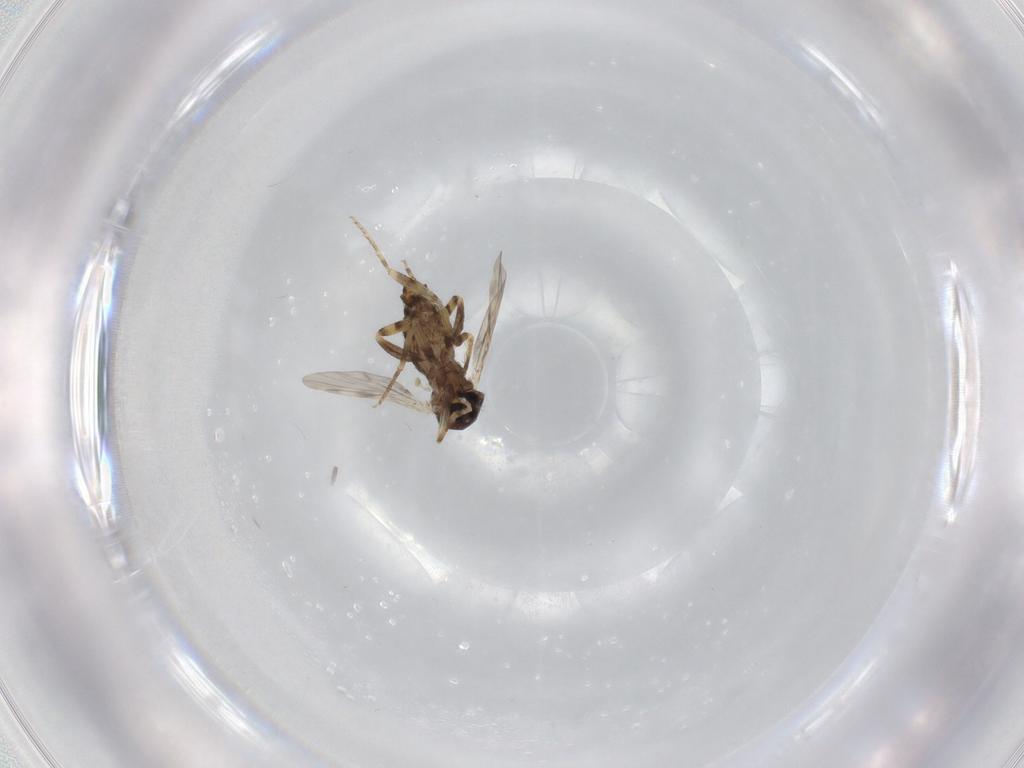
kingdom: Animalia
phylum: Arthropoda
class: Insecta
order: Diptera
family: Ceratopogonidae
